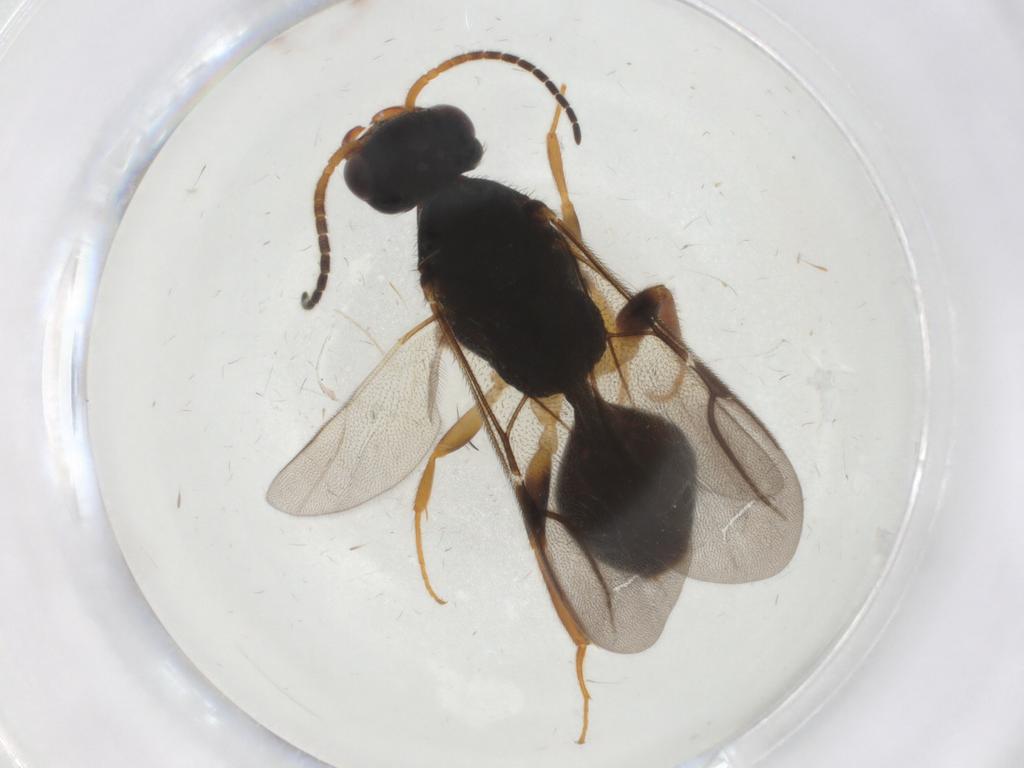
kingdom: Animalia
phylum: Arthropoda
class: Insecta
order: Hymenoptera
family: Bethylidae
